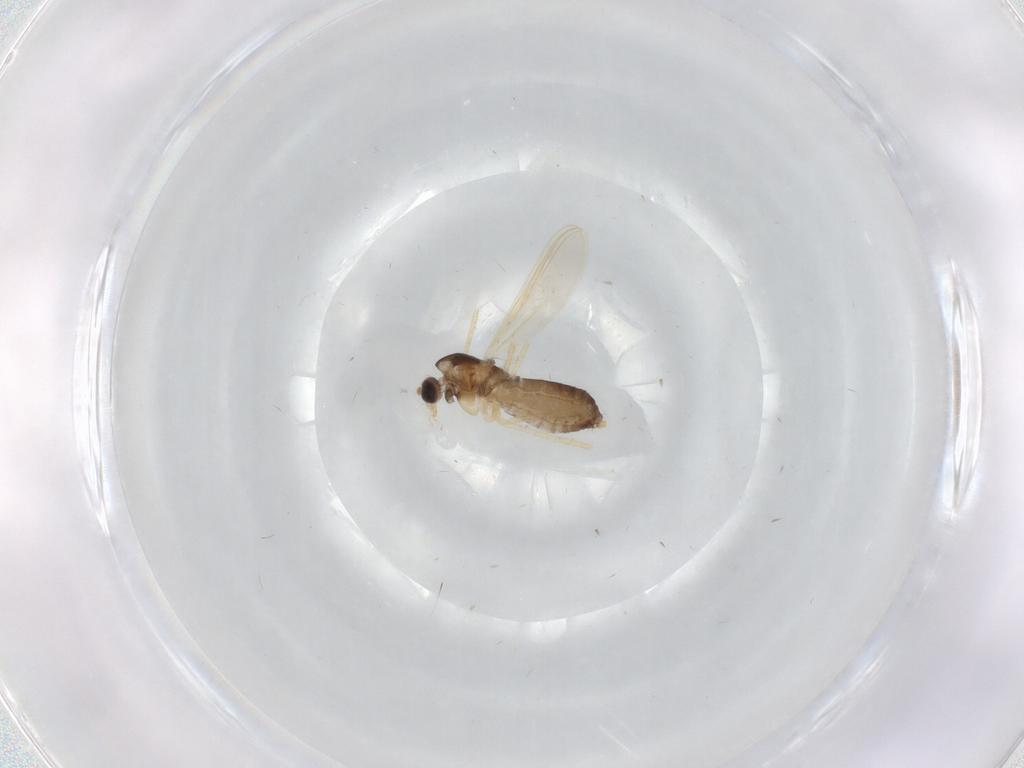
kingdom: Animalia
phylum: Arthropoda
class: Insecta
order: Diptera
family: Chironomidae
